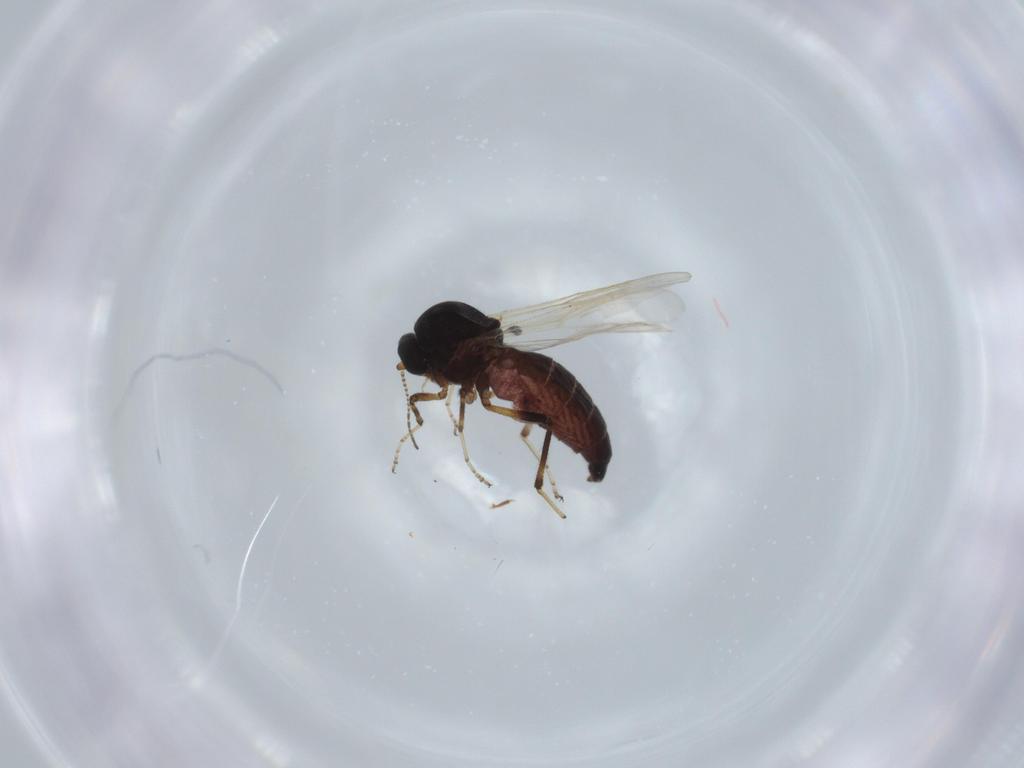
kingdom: Animalia
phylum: Arthropoda
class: Insecta
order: Diptera
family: Ceratopogonidae
